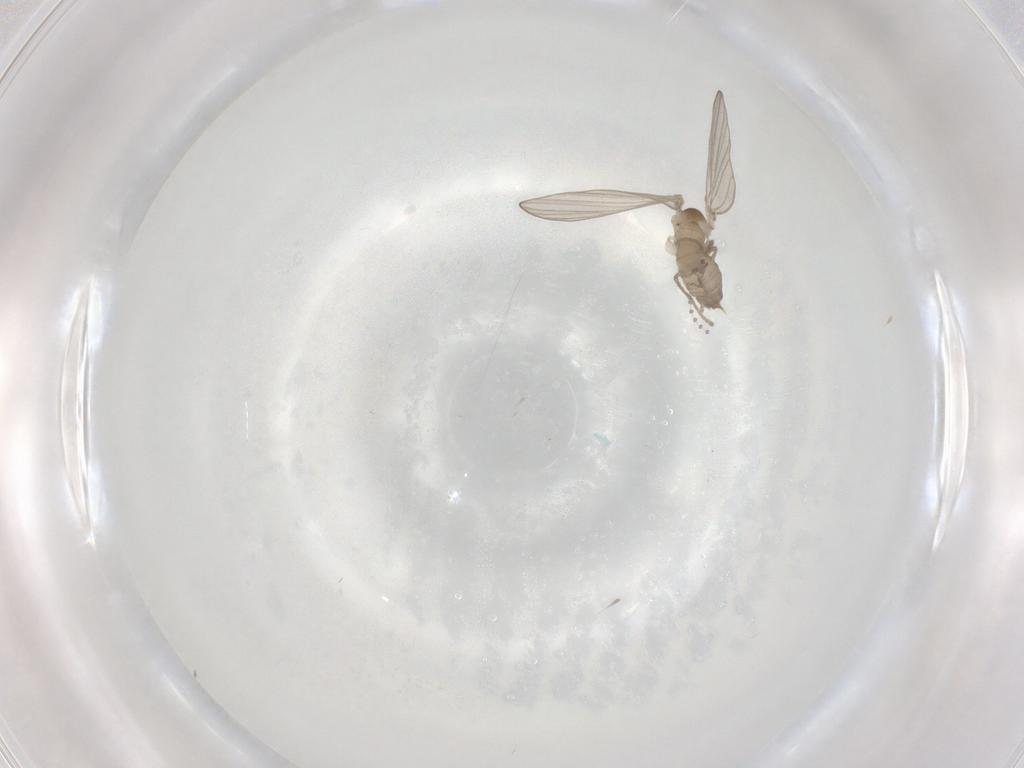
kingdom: Animalia
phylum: Arthropoda
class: Insecta
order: Diptera
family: Psychodidae
